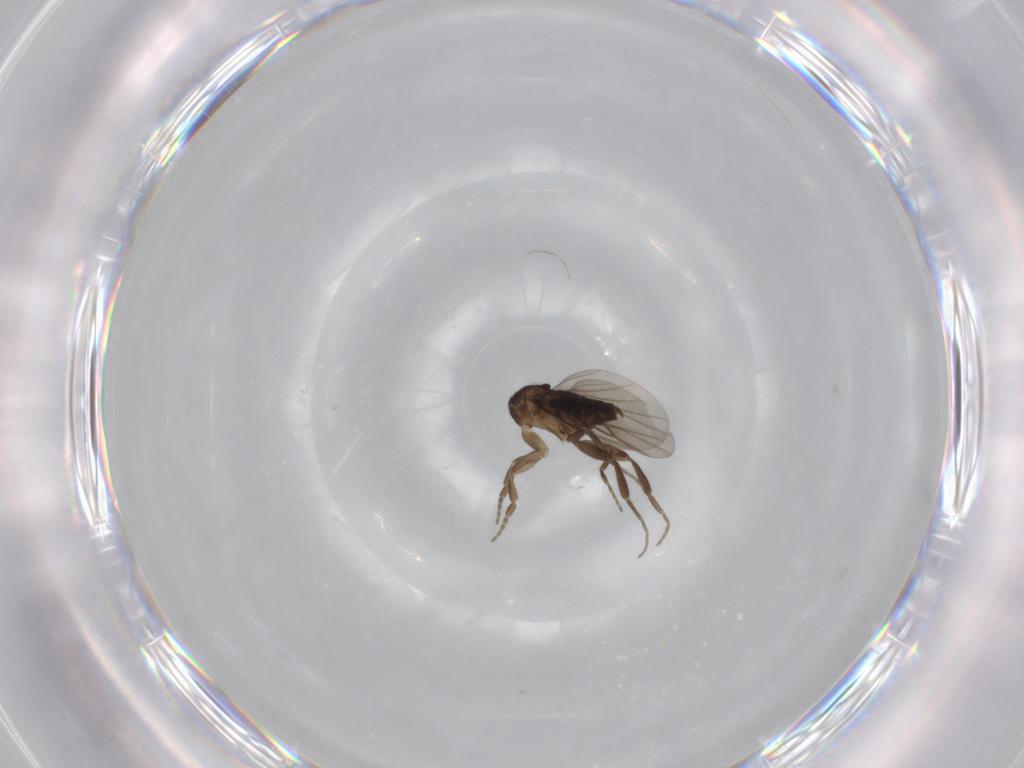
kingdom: Animalia
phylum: Arthropoda
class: Insecta
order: Diptera
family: Phoridae
